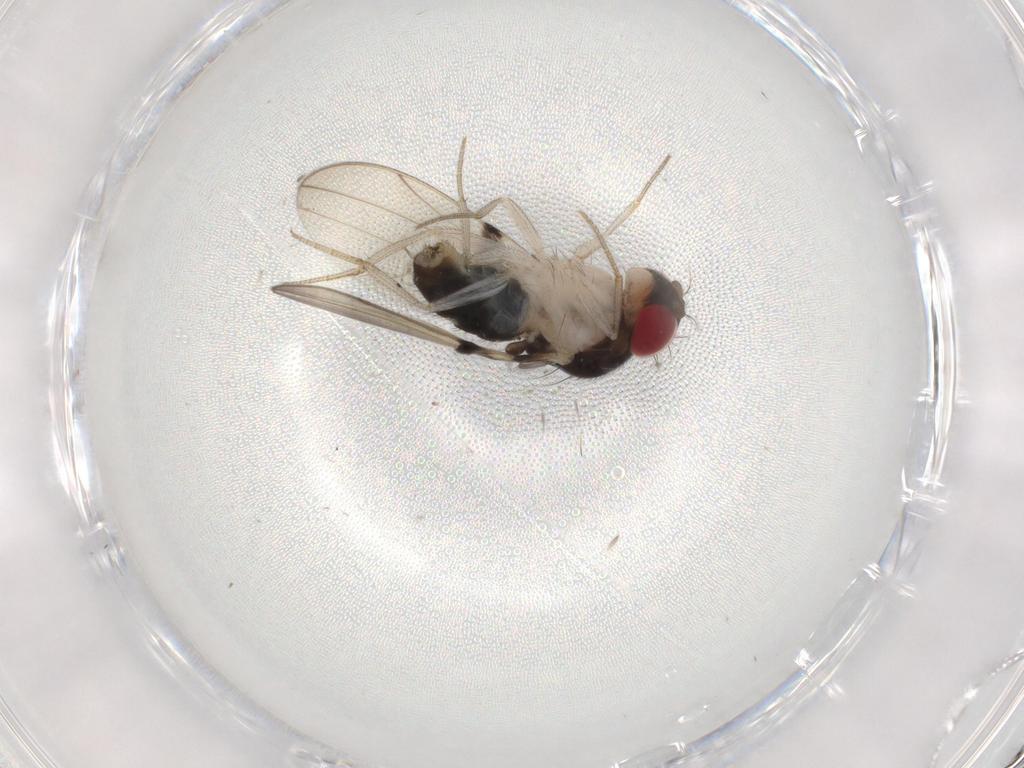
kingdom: Animalia
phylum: Arthropoda
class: Insecta
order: Diptera
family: Drosophilidae
